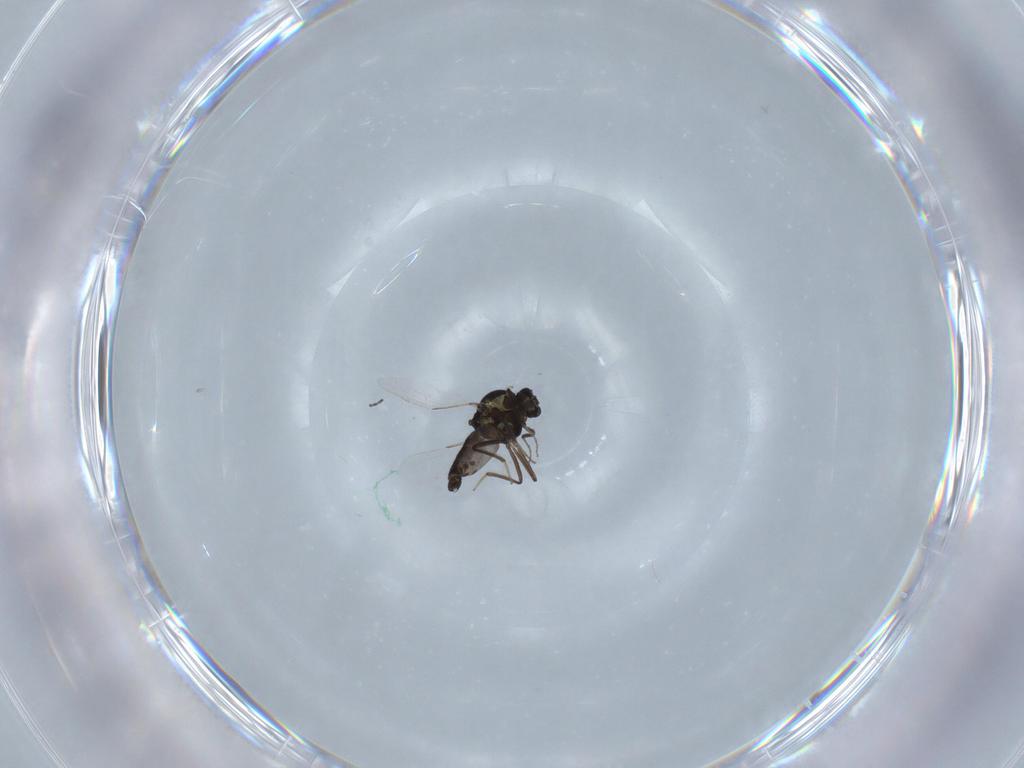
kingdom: Animalia
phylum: Arthropoda
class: Insecta
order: Diptera
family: Ceratopogonidae
